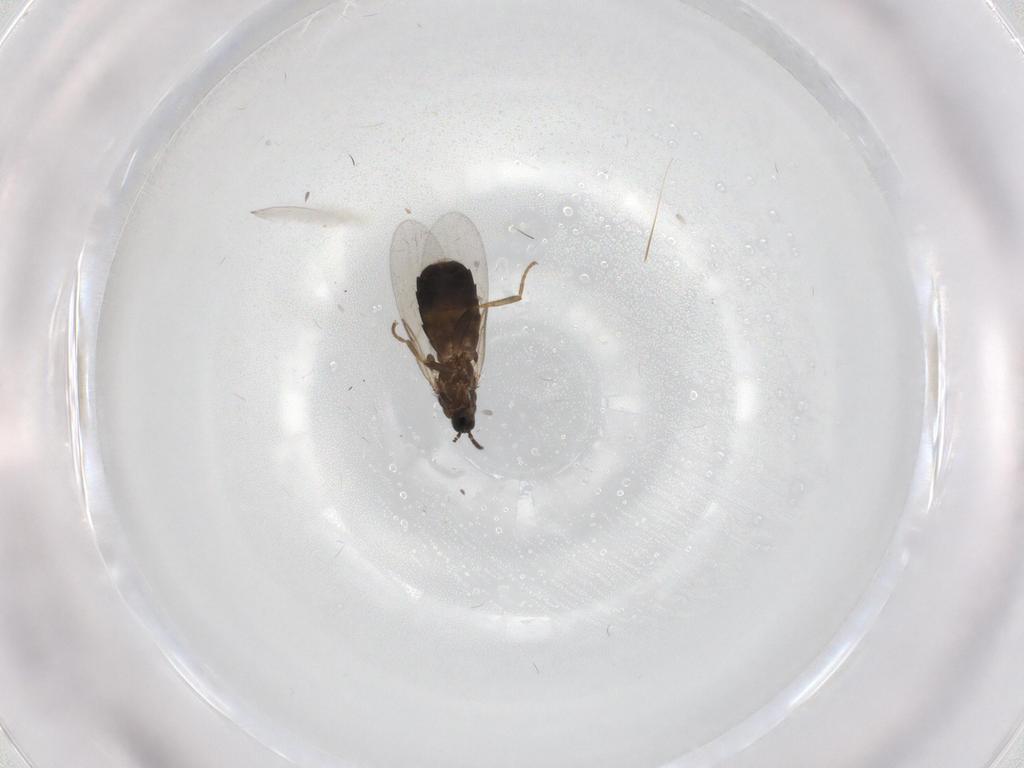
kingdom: Animalia
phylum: Arthropoda
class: Insecta
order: Diptera
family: Scatopsidae
